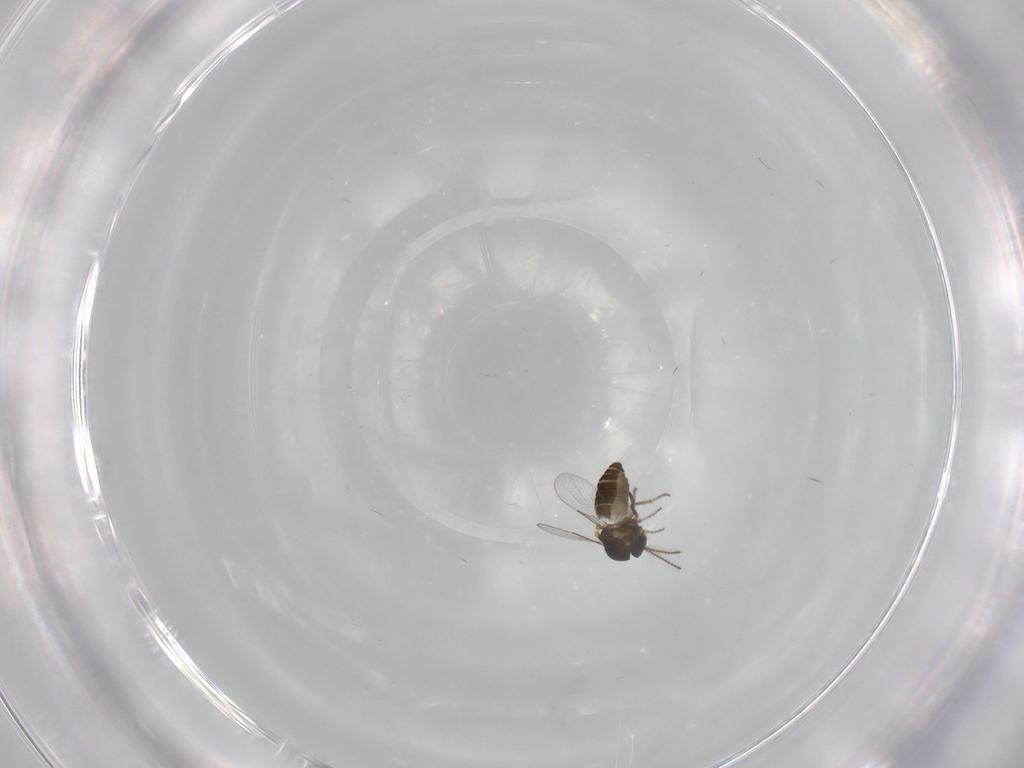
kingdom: Animalia
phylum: Arthropoda
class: Insecta
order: Diptera
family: Ceratopogonidae
